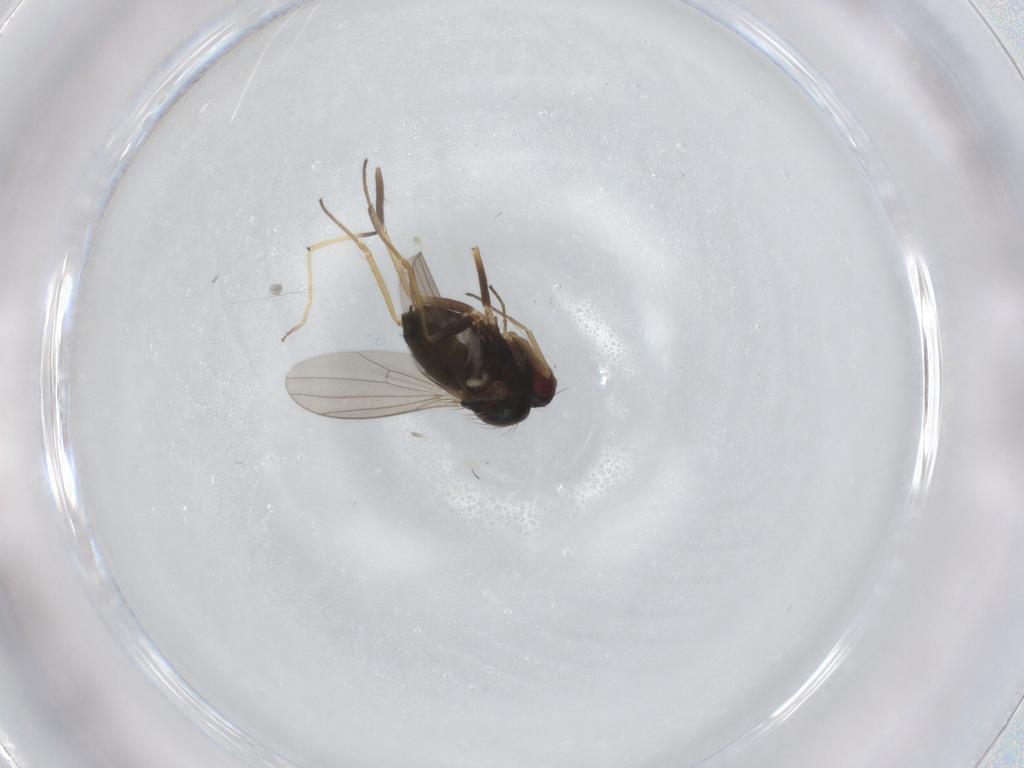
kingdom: Animalia
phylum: Arthropoda
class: Insecta
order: Diptera
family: Chironomidae
